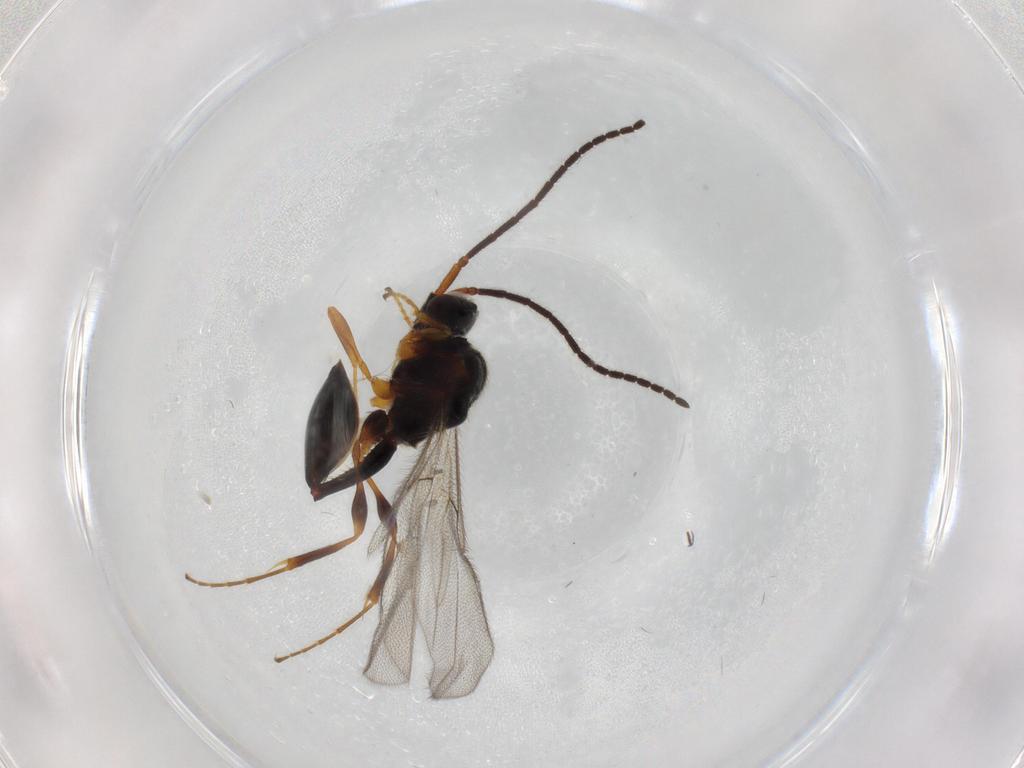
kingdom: Animalia
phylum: Arthropoda
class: Insecta
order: Hymenoptera
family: Diapriidae
